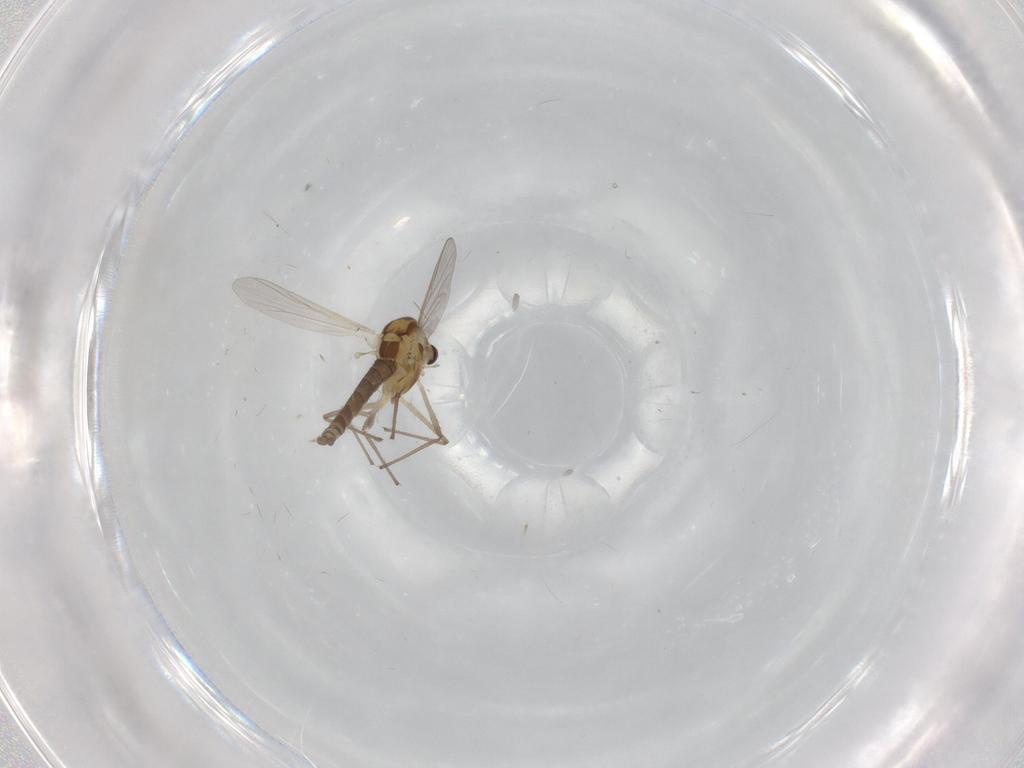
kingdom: Animalia
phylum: Arthropoda
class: Insecta
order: Diptera
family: Chironomidae
